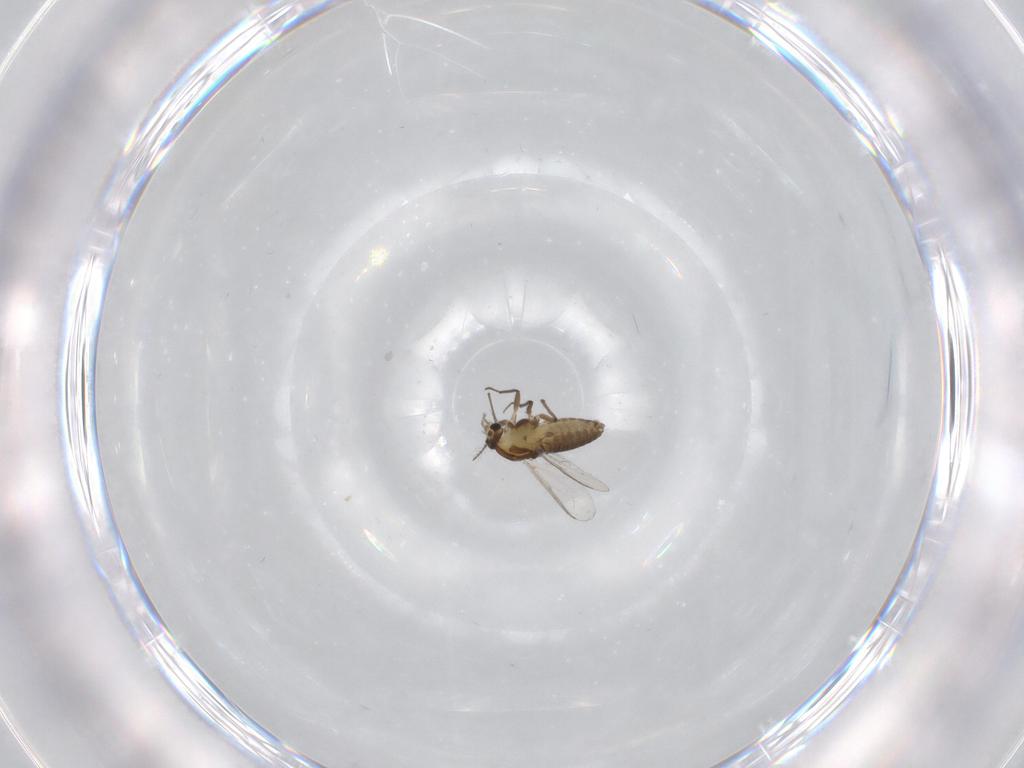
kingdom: Animalia
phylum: Arthropoda
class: Insecta
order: Diptera
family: Chironomidae
